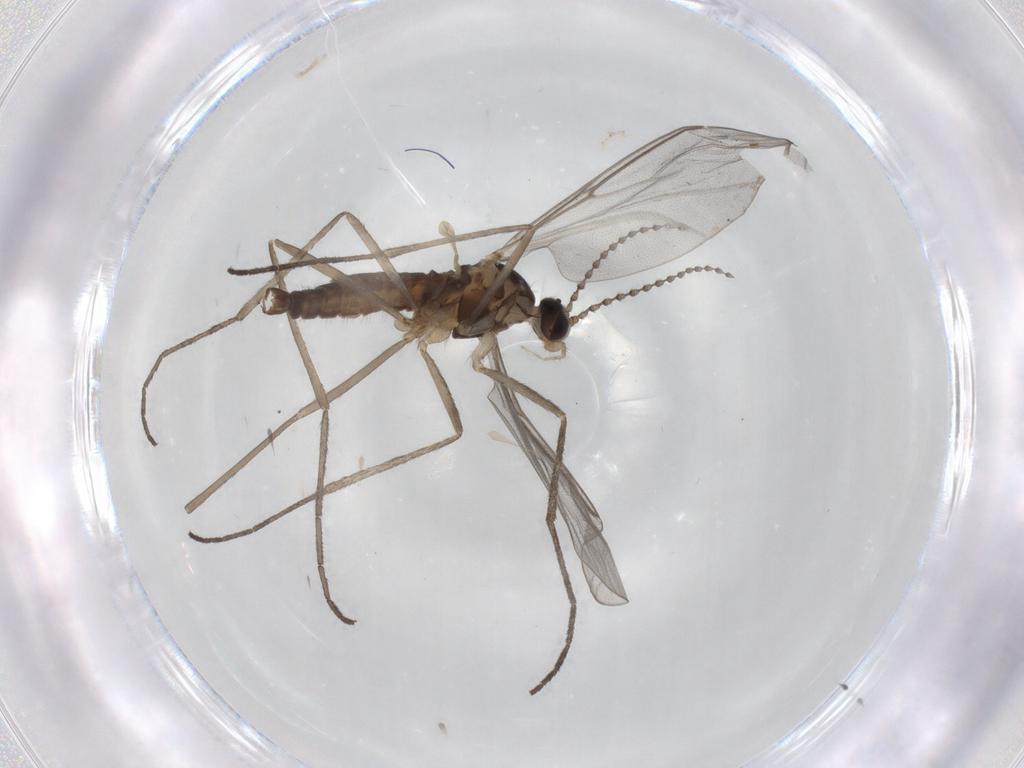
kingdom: Animalia
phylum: Arthropoda
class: Insecta
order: Diptera
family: Cecidomyiidae
